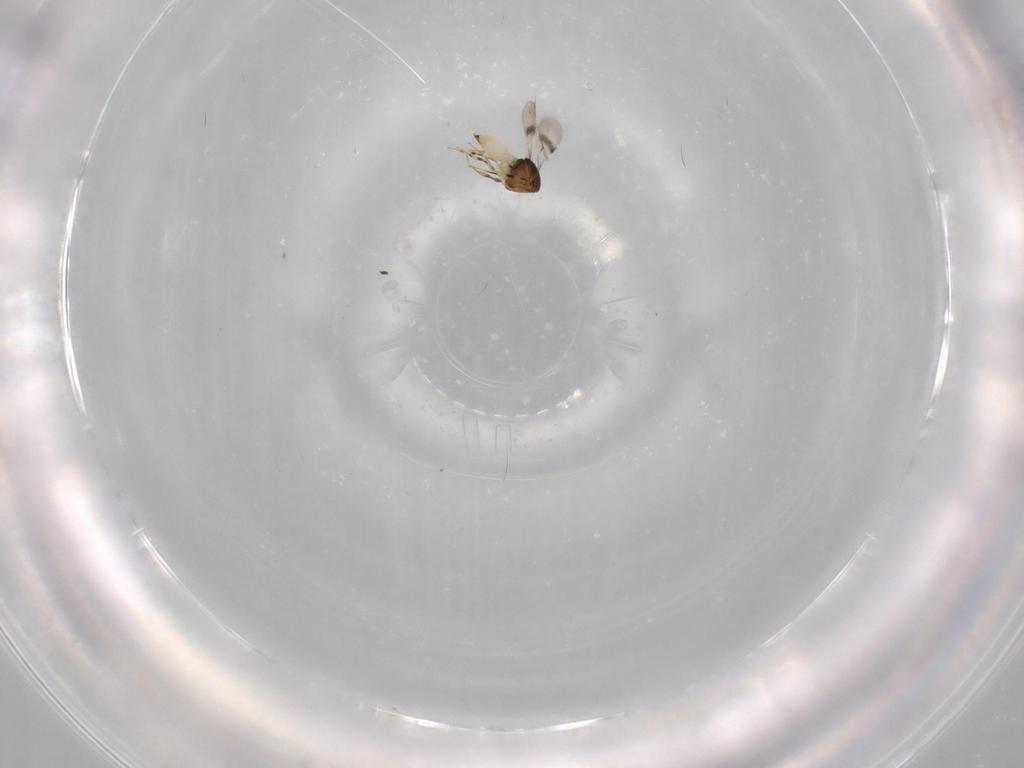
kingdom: Animalia
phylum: Arthropoda
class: Insecta
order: Hymenoptera
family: Scelionidae
